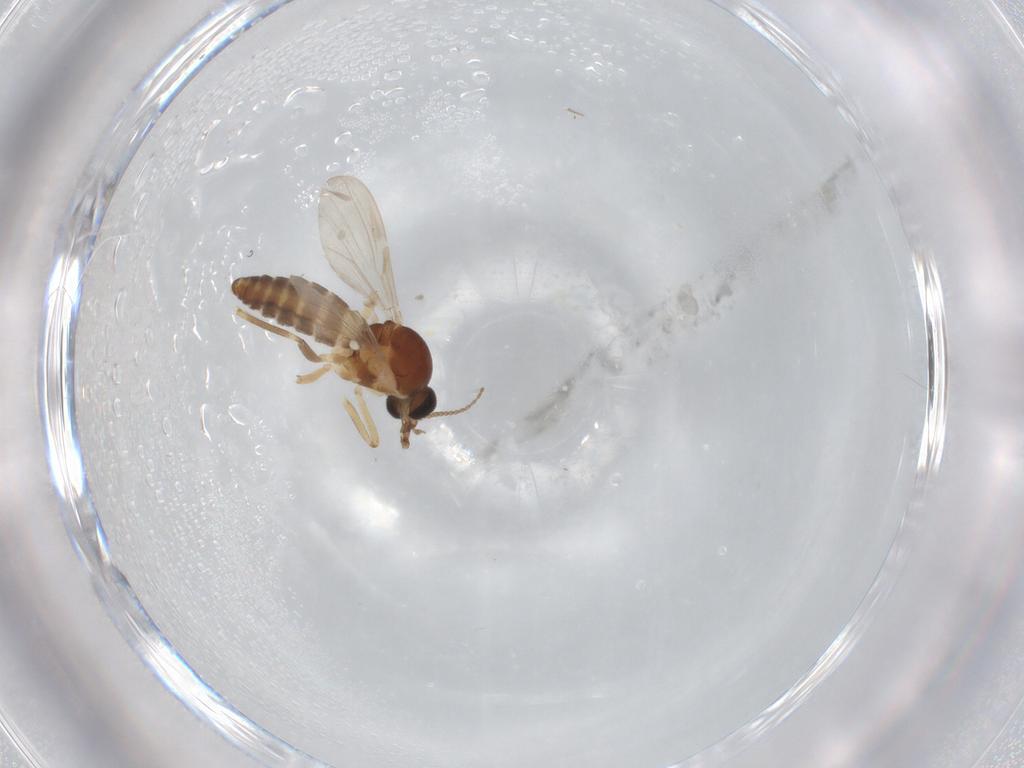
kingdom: Animalia
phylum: Arthropoda
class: Insecta
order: Diptera
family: Ceratopogonidae
